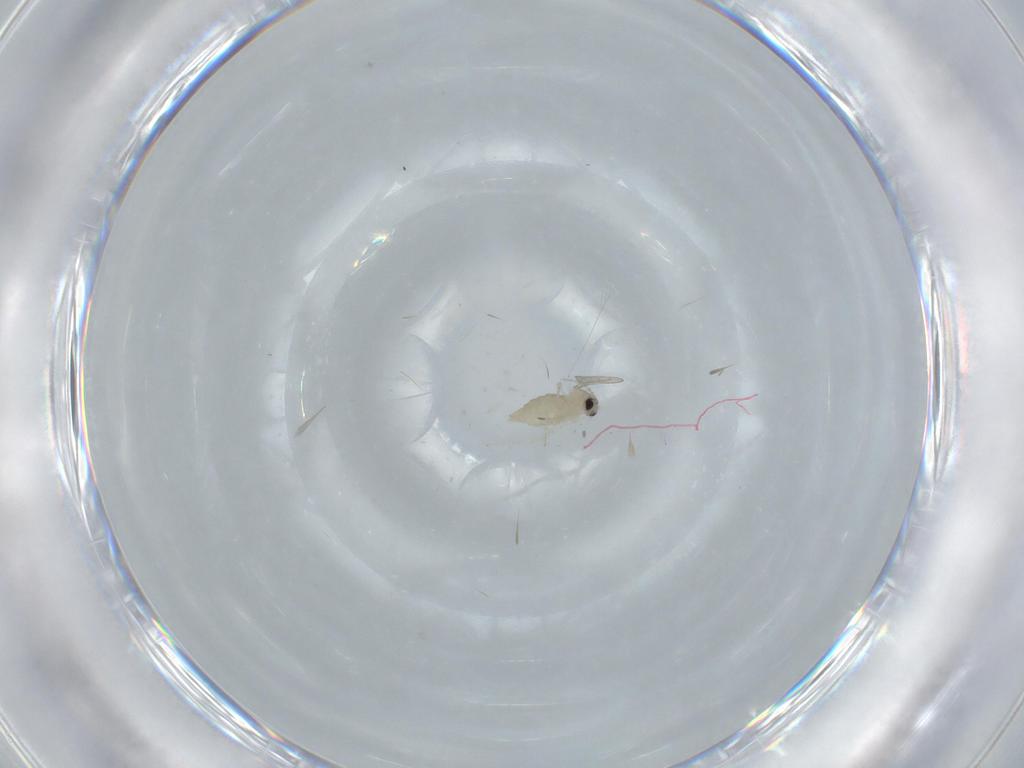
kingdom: Animalia
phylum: Arthropoda
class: Insecta
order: Diptera
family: Cecidomyiidae
